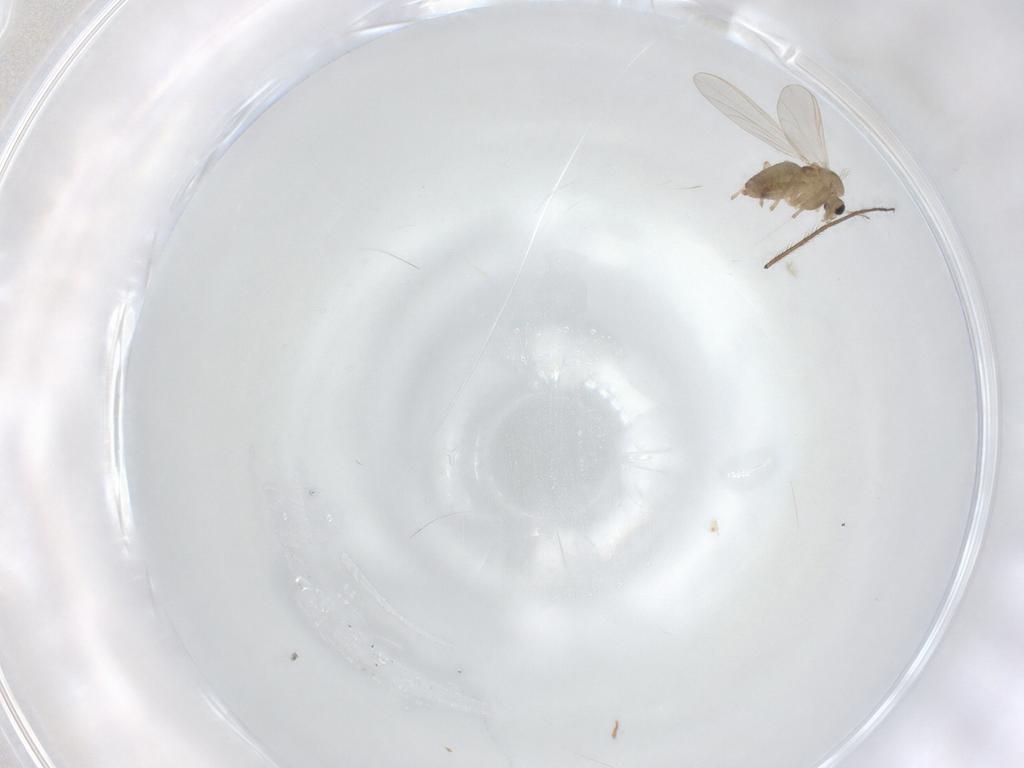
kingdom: Animalia
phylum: Arthropoda
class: Insecta
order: Diptera
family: Chironomidae
